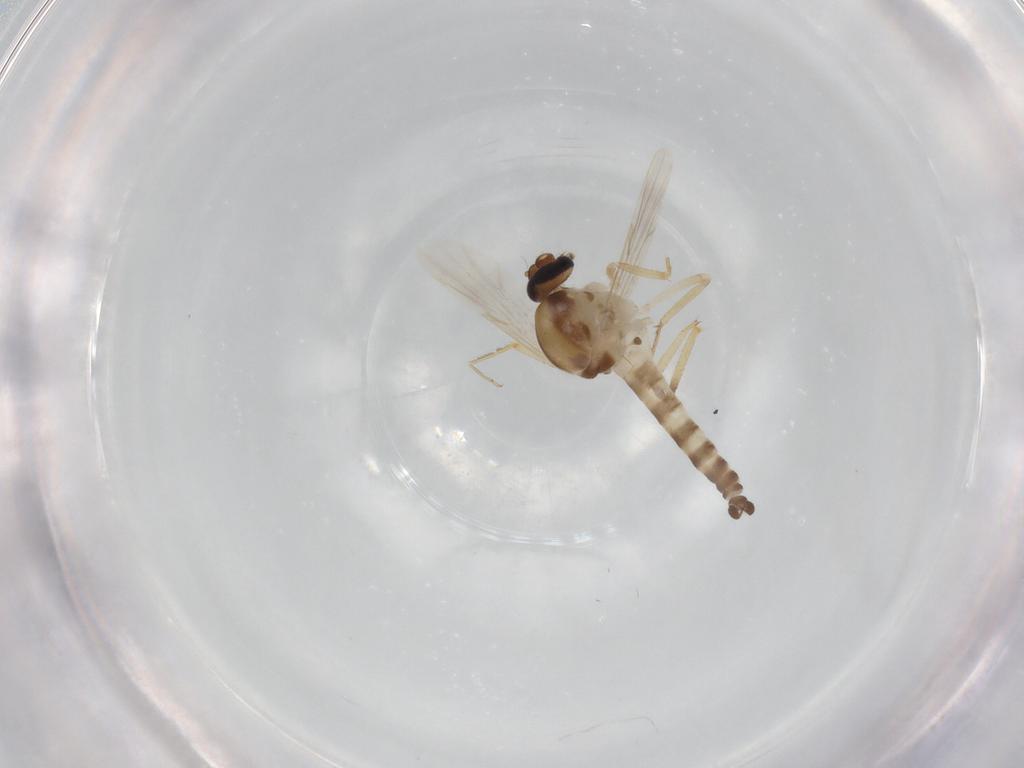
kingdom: Animalia
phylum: Arthropoda
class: Insecta
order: Diptera
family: Ceratopogonidae
